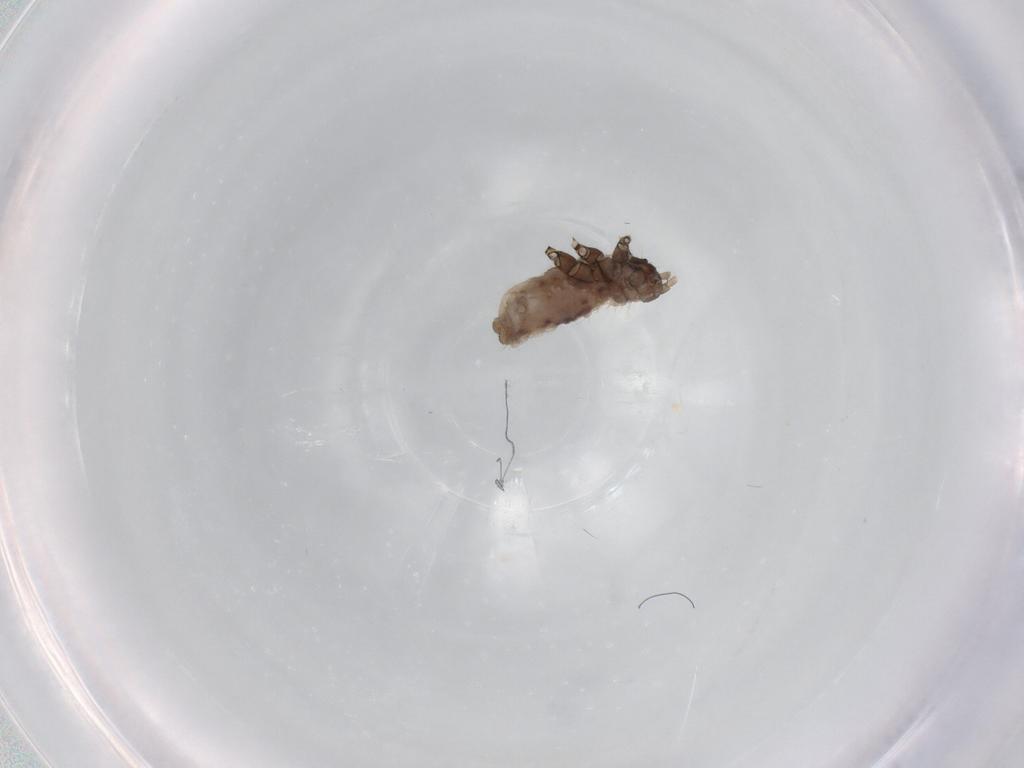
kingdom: Animalia
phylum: Arthropoda
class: Insecta
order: Hemiptera
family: Aphididae
